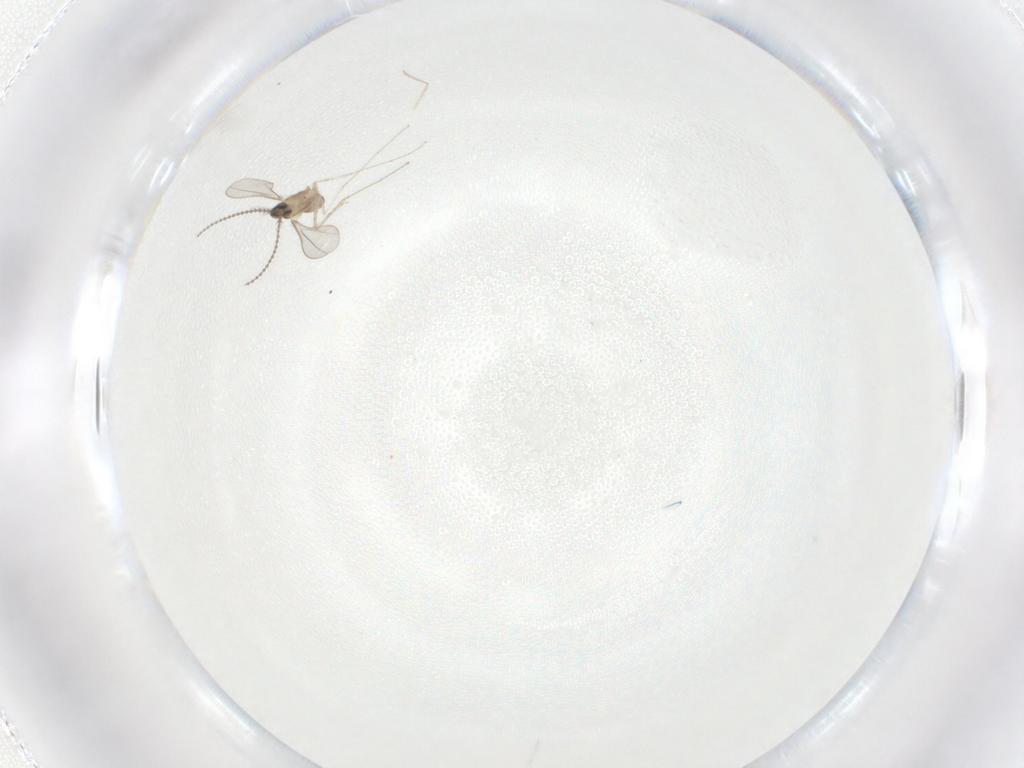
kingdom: Animalia
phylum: Arthropoda
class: Insecta
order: Diptera
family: Cecidomyiidae
